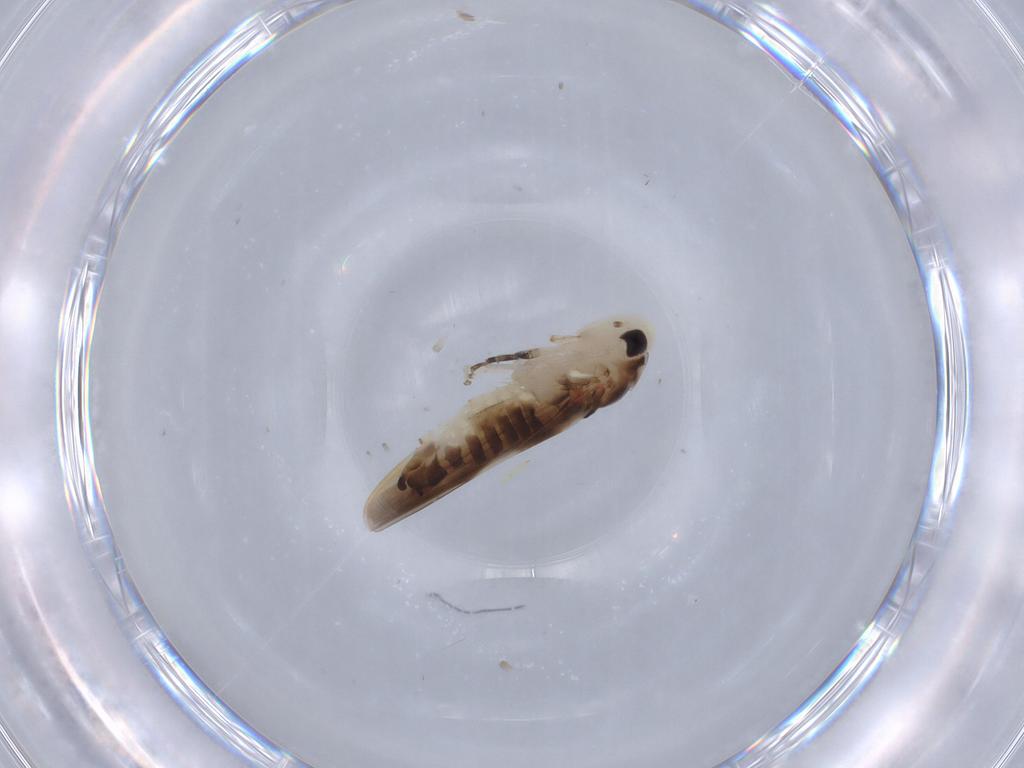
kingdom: Animalia
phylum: Arthropoda
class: Insecta
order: Hemiptera
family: Cicadellidae
